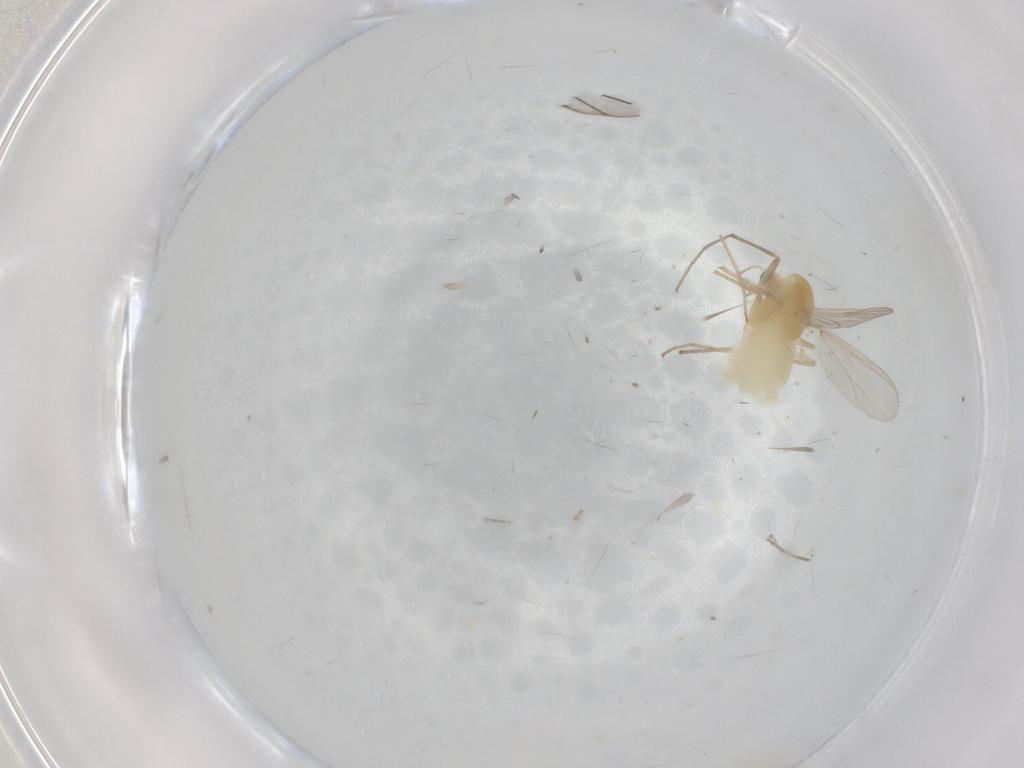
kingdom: Animalia
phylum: Arthropoda
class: Insecta
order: Diptera
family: Chironomidae
